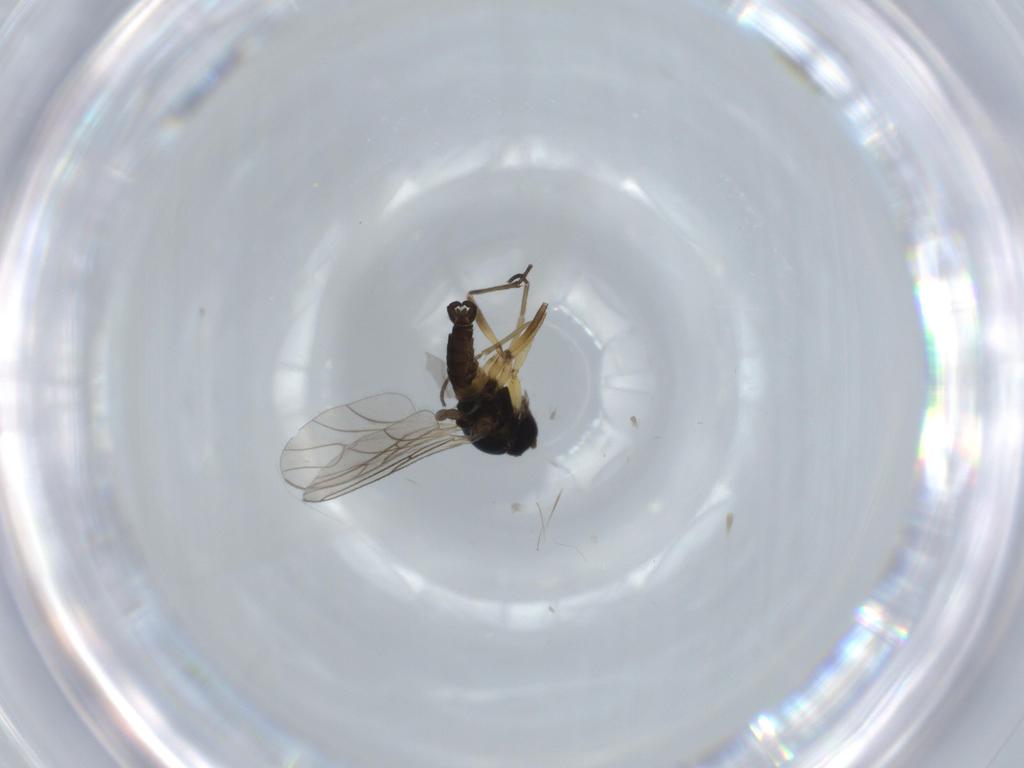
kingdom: Animalia
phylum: Arthropoda
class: Insecta
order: Diptera
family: Sciaridae
